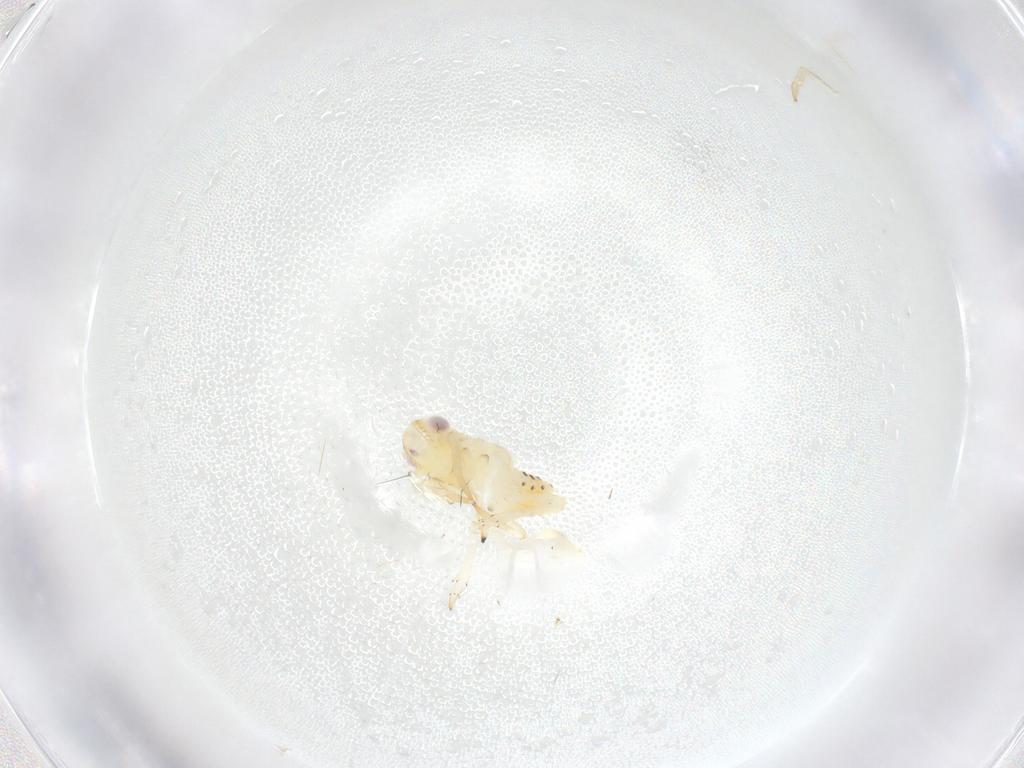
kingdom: Animalia
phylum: Arthropoda
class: Insecta
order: Hemiptera
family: Tropiduchidae
